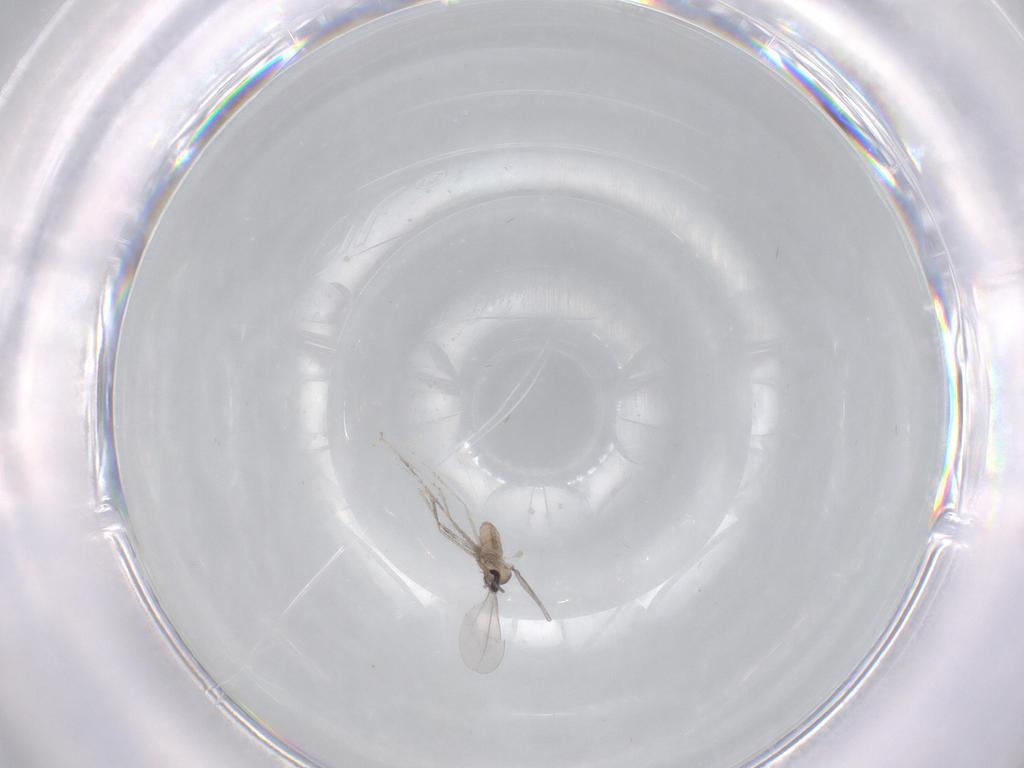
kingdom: Animalia
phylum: Arthropoda
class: Insecta
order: Diptera
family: Cecidomyiidae
